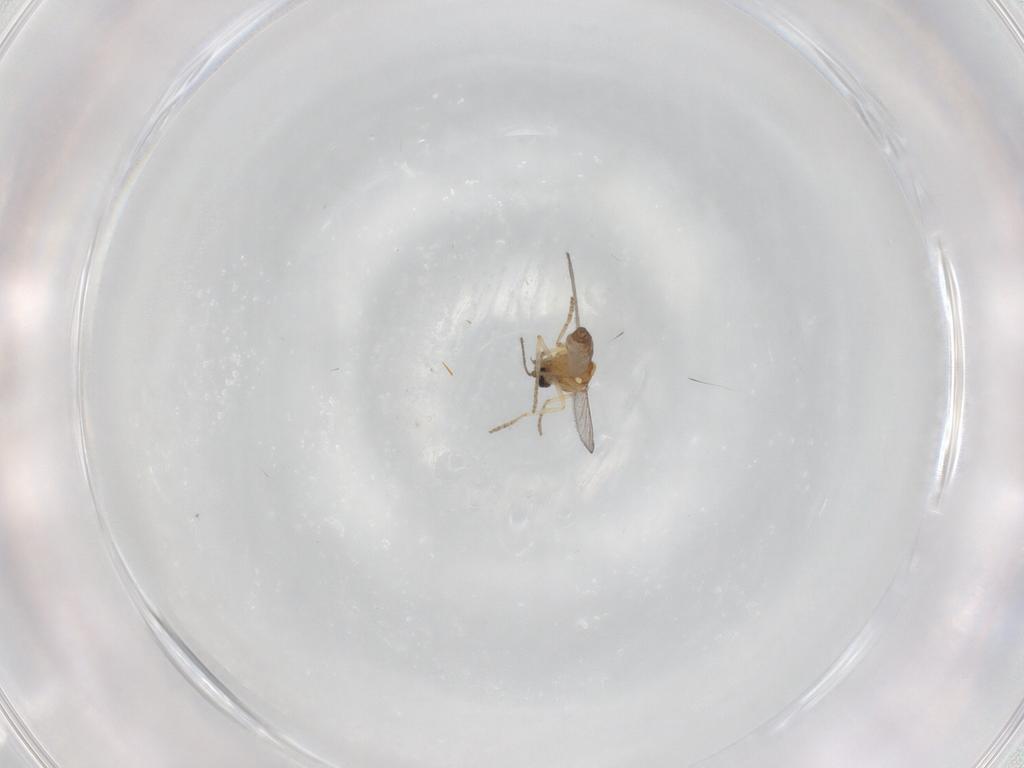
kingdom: Animalia
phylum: Arthropoda
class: Insecta
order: Diptera
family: Ceratopogonidae
